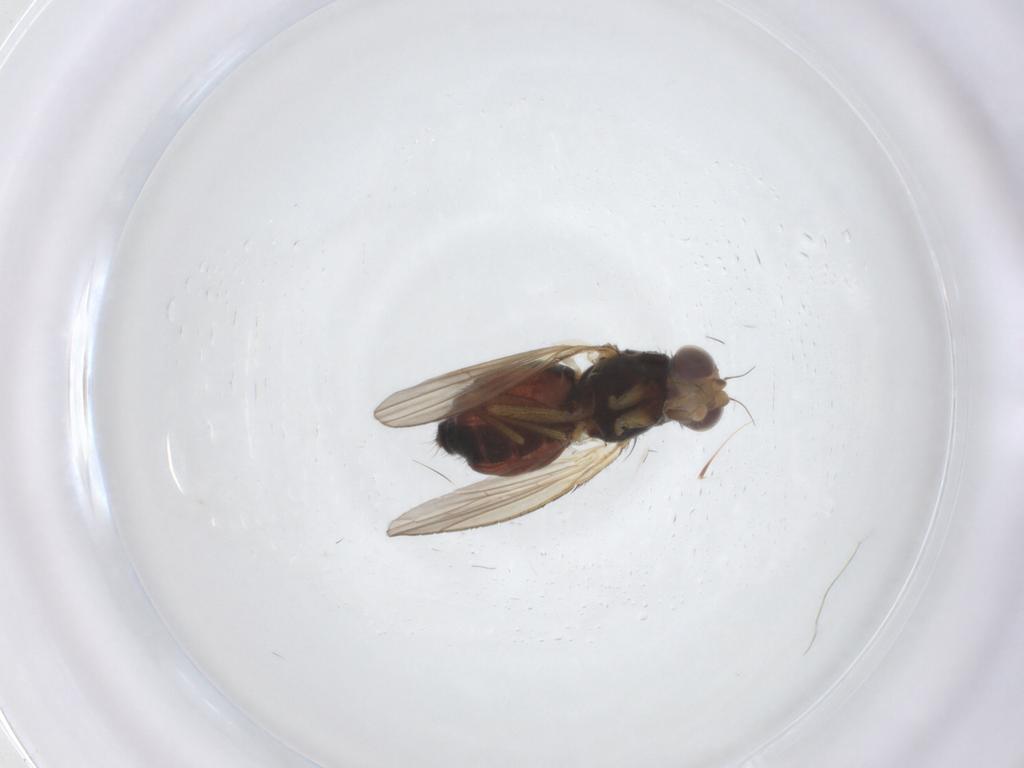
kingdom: Animalia
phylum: Arthropoda
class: Insecta
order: Diptera
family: Heleomyzidae
